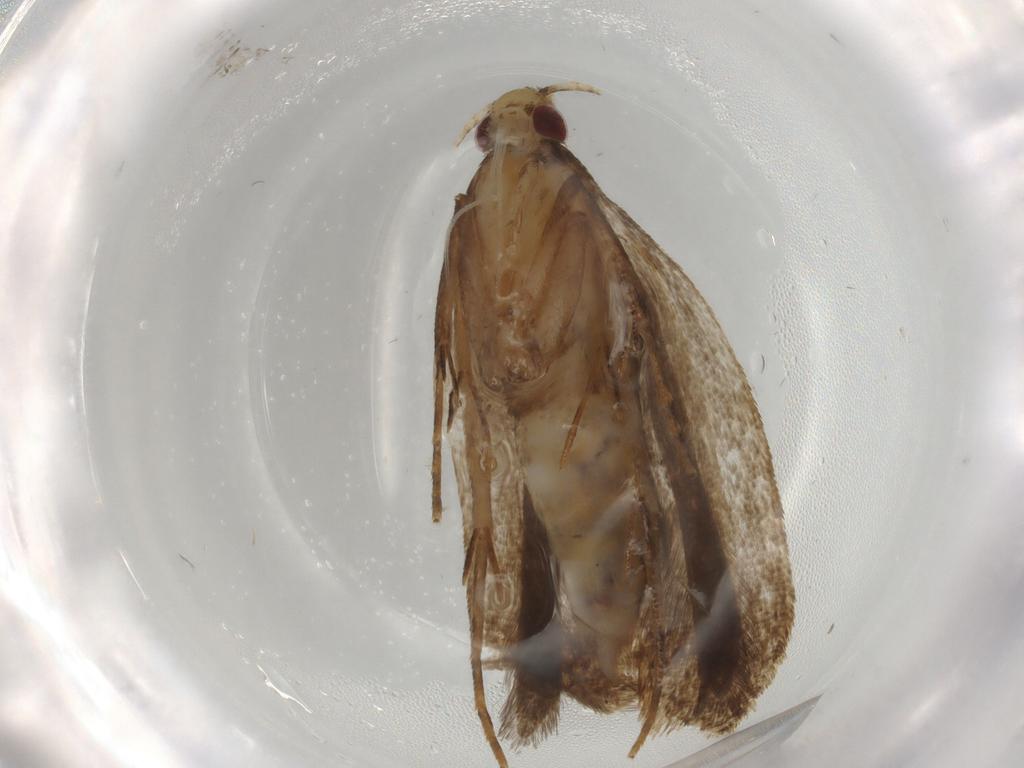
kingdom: Animalia
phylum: Arthropoda
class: Insecta
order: Lepidoptera
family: Gelechiidae
